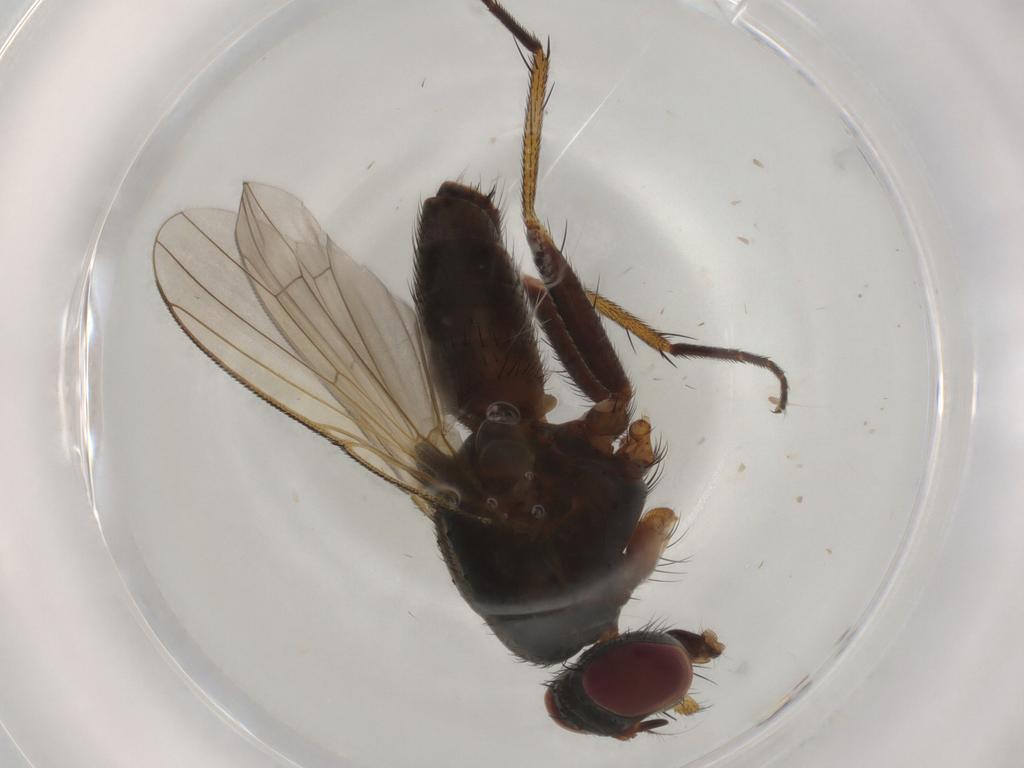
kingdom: Animalia
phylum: Arthropoda
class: Insecta
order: Diptera
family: Muscidae
